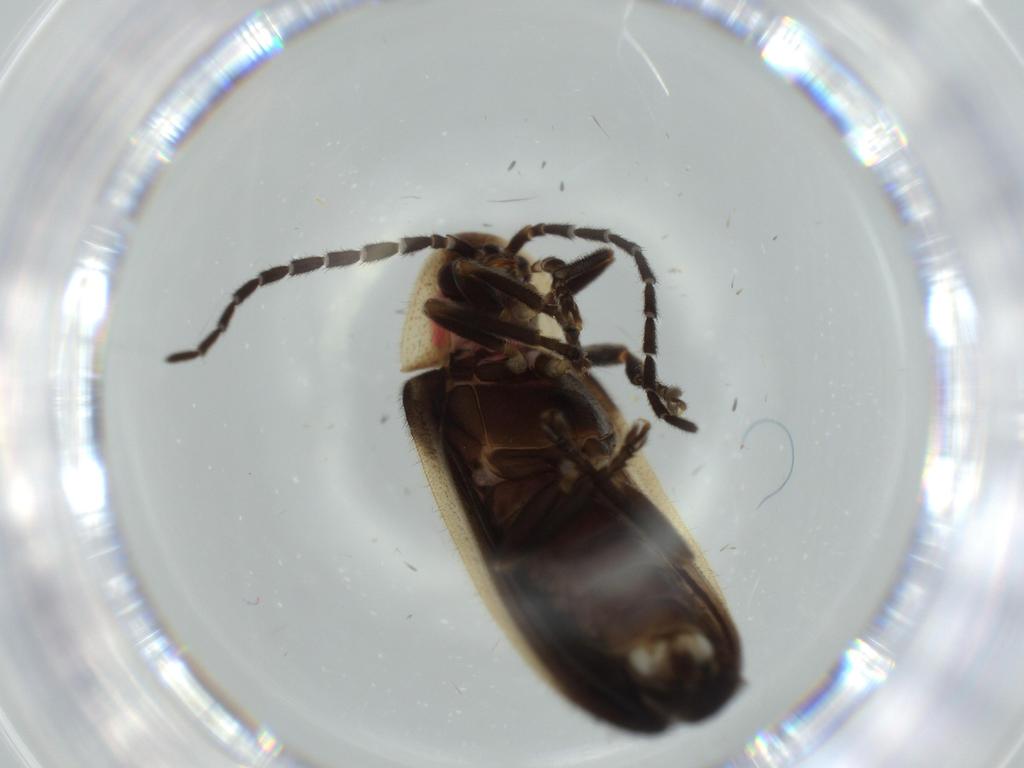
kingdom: Animalia
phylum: Arthropoda
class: Insecta
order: Coleoptera
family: Lampyridae
